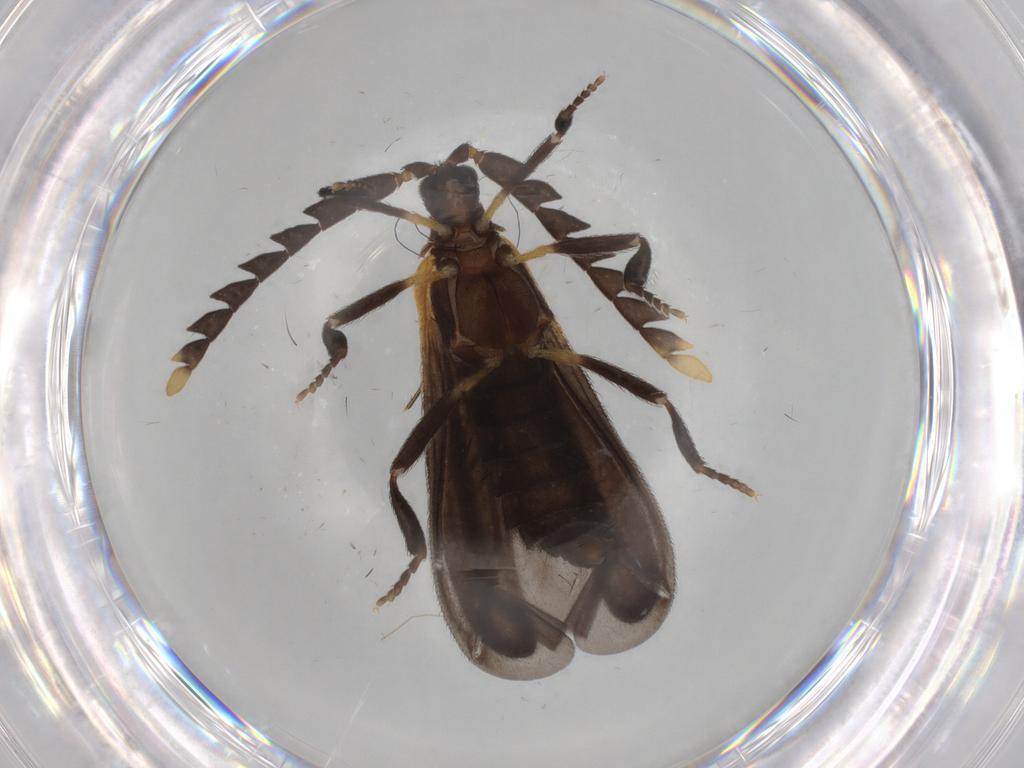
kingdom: Animalia
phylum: Arthropoda
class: Insecta
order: Coleoptera
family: Lycidae
